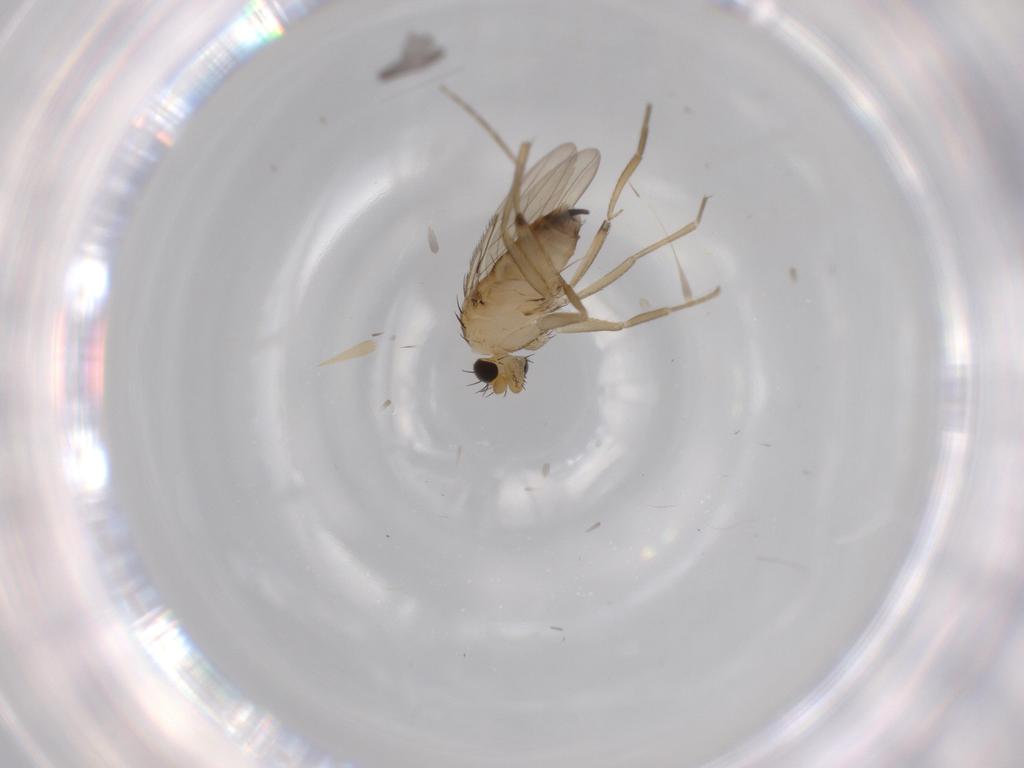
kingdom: Animalia
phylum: Arthropoda
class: Insecta
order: Diptera
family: Phoridae
